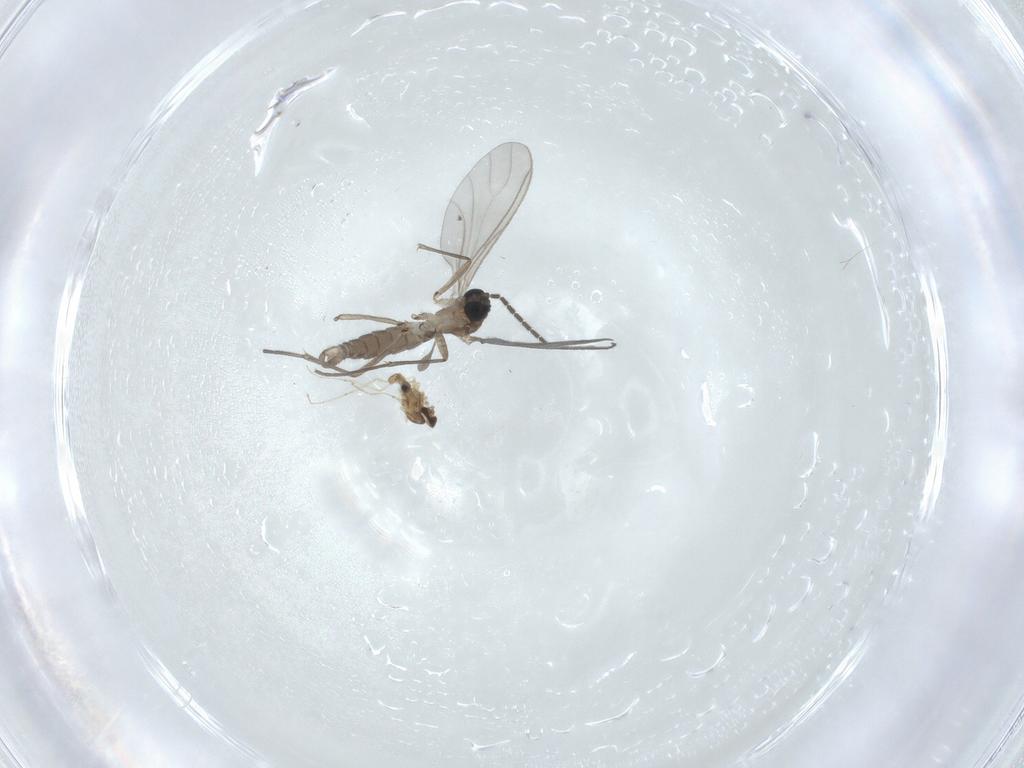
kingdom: Animalia
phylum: Arthropoda
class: Insecta
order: Diptera
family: Sciaridae
